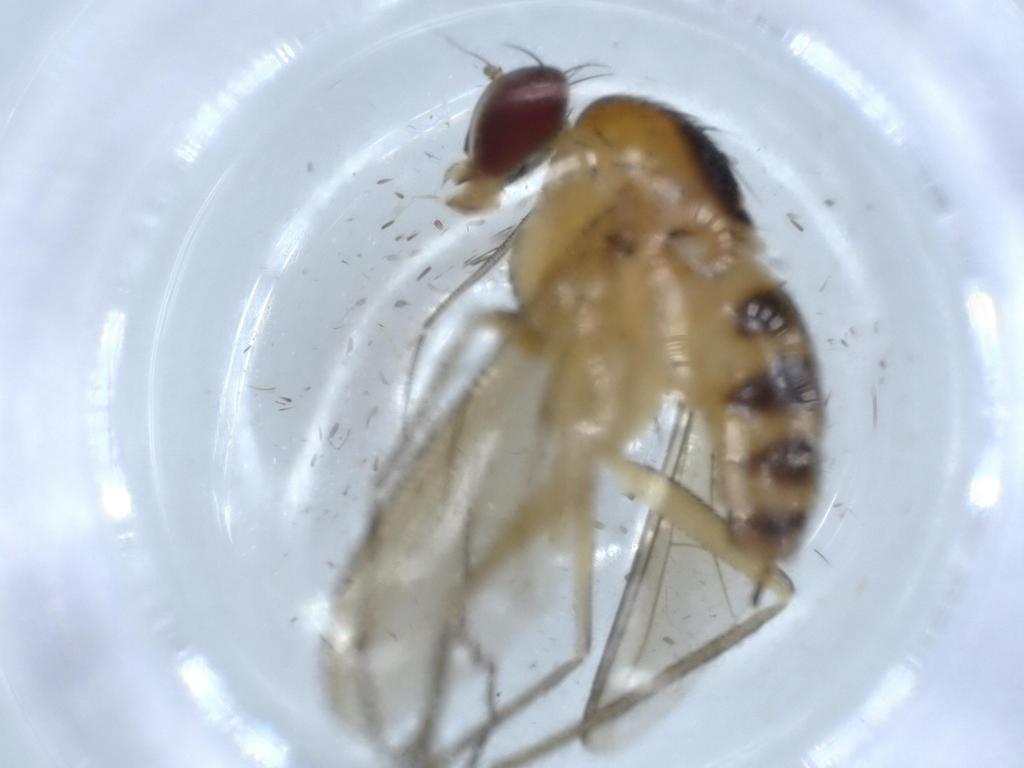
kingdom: Animalia
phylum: Arthropoda
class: Insecta
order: Diptera
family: Dolichopodidae
